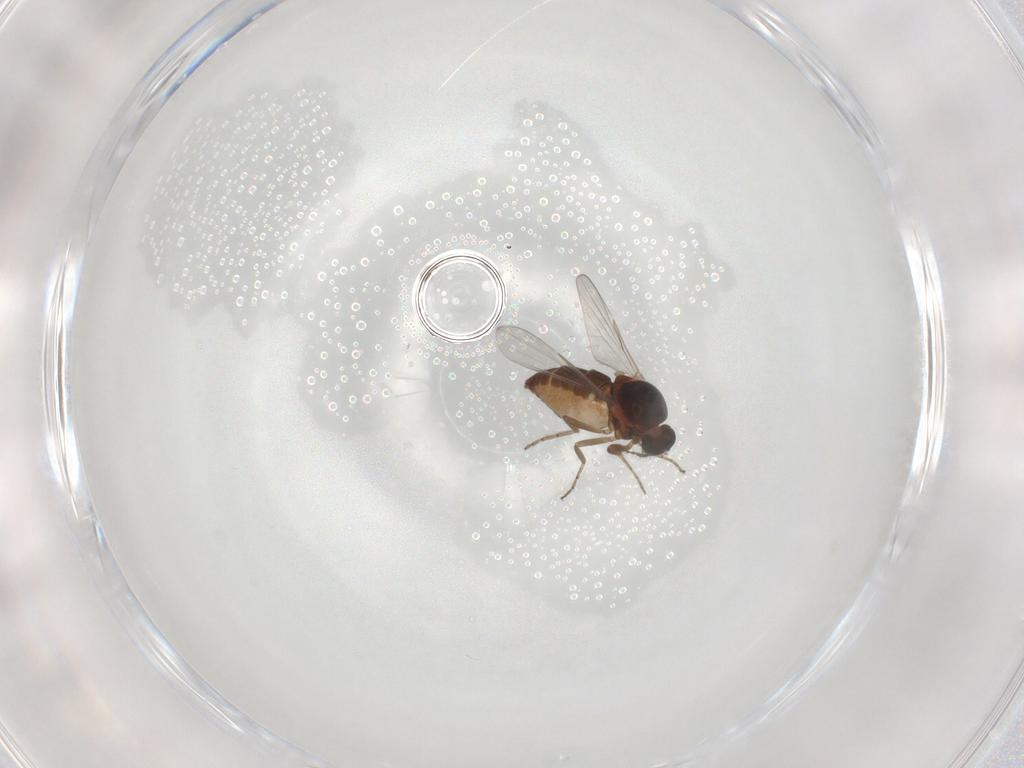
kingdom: Animalia
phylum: Arthropoda
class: Insecta
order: Diptera
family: Ceratopogonidae
